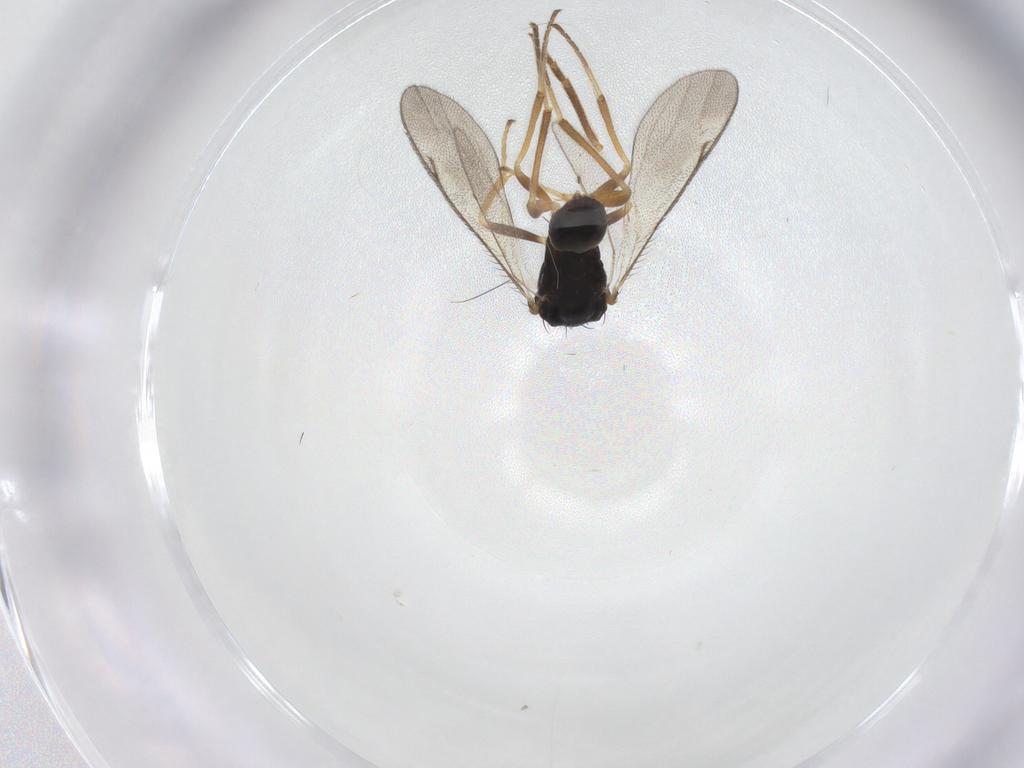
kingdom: Animalia
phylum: Arthropoda
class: Insecta
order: Hymenoptera
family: Formicidae
